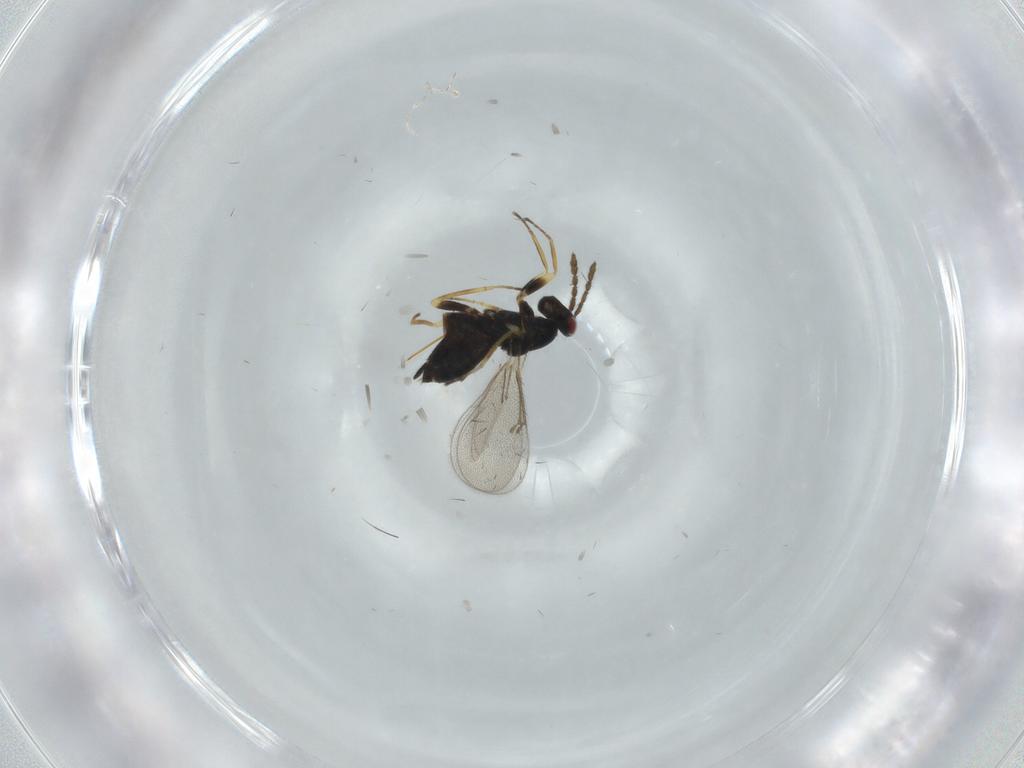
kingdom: Animalia
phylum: Arthropoda
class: Insecta
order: Hymenoptera
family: Eulophidae
